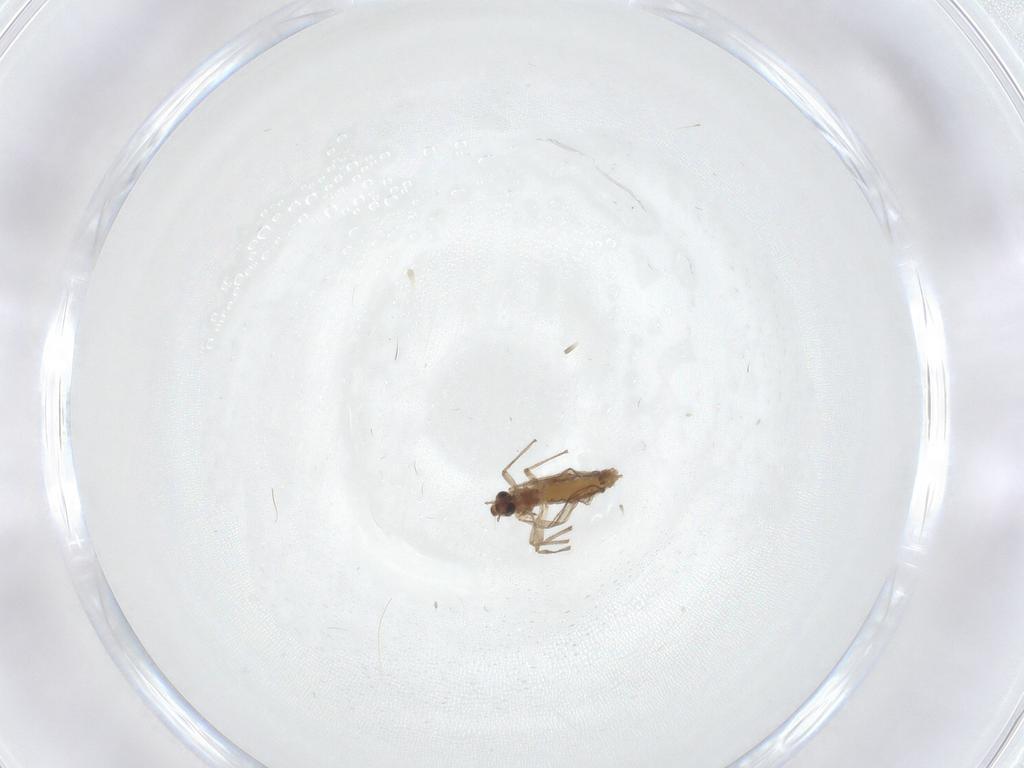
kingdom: Animalia
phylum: Arthropoda
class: Insecta
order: Diptera
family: Chironomidae
